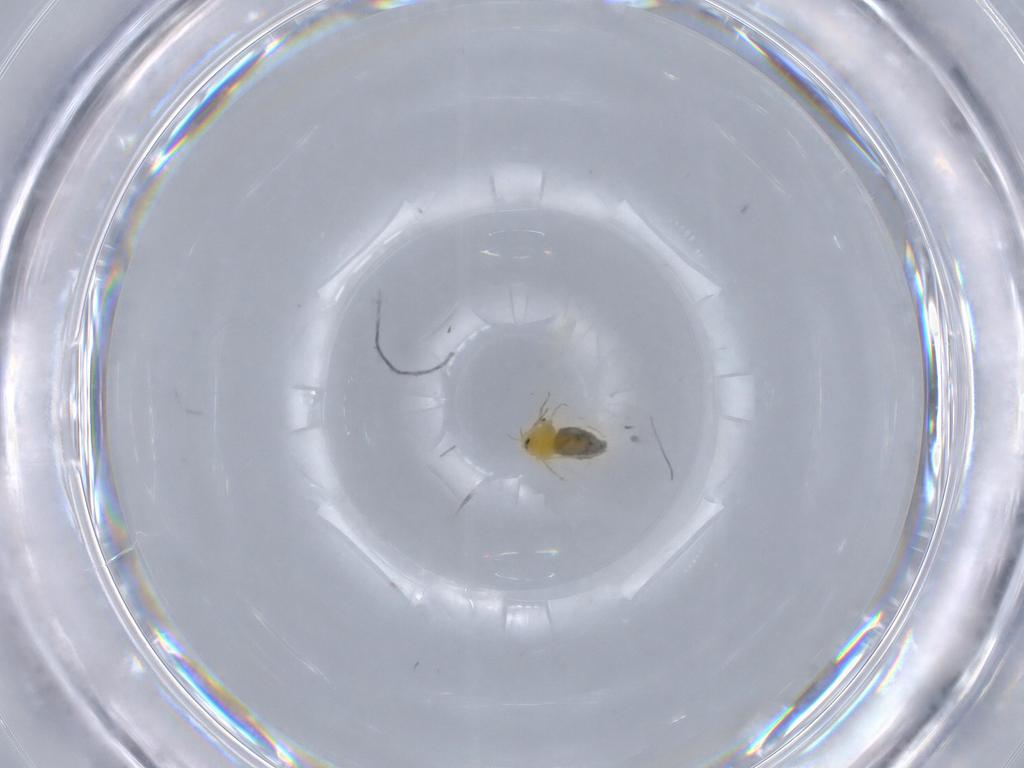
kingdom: Animalia
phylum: Arthropoda
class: Insecta
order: Hemiptera
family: Aleyrodidae
